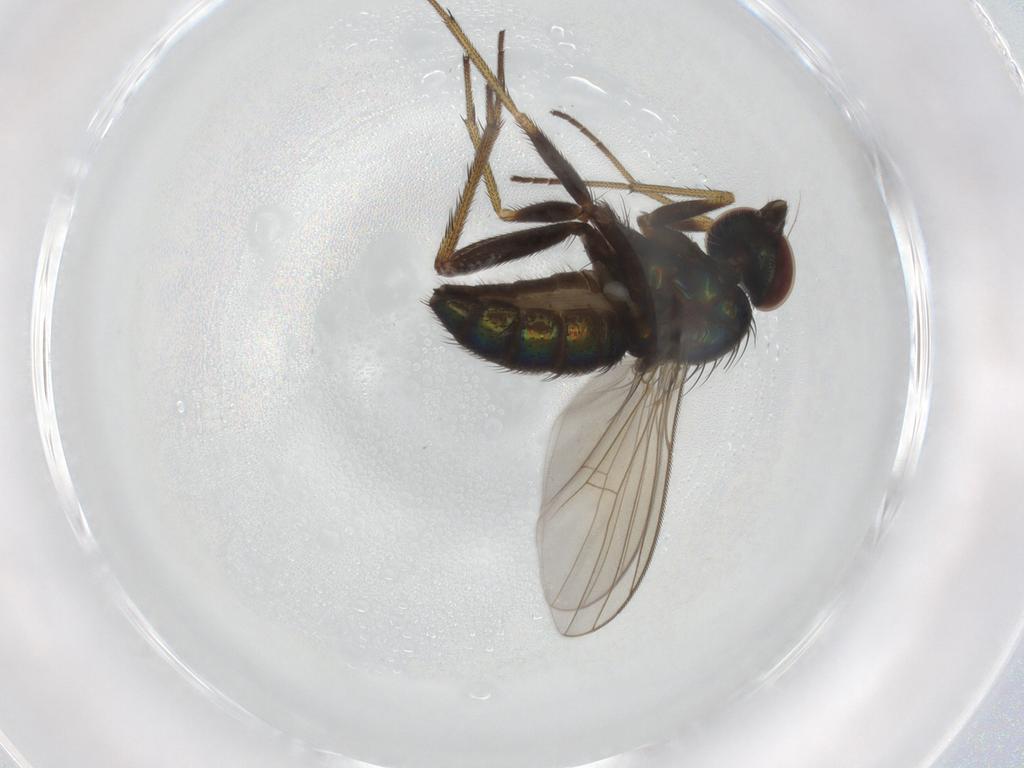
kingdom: Animalia
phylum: Arthropoda
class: Insecta
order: Diptera
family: Dolichopodidae
